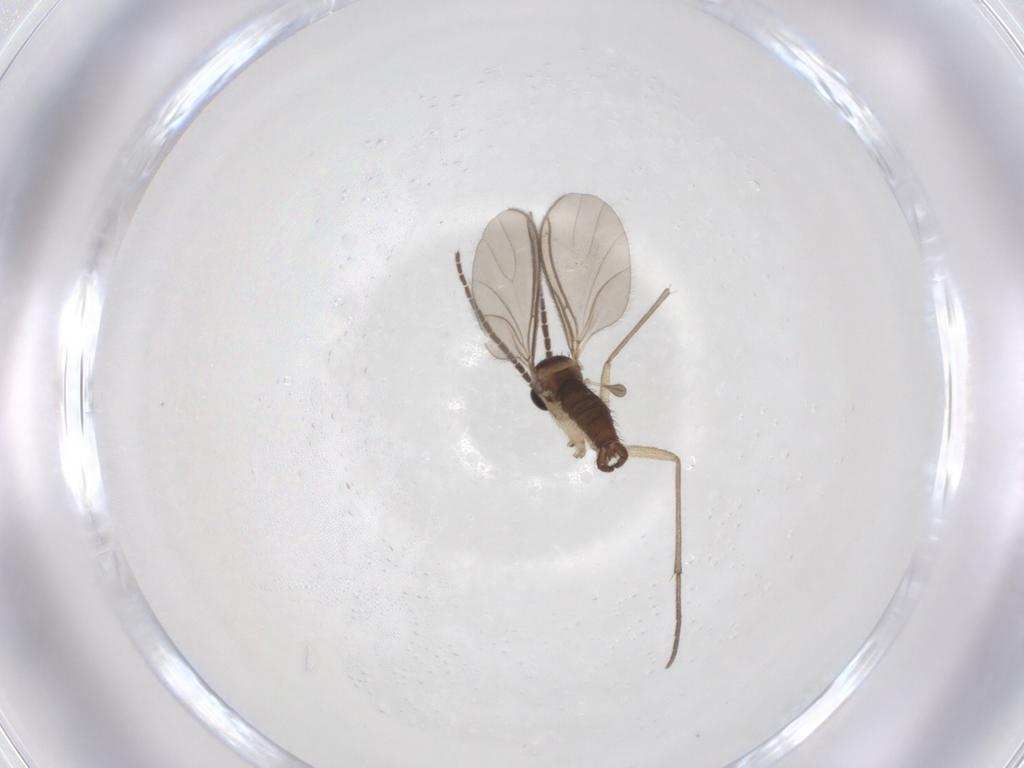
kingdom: Animalia
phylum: Arthropoda
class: Insecta
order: Diptera
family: Sciaridae
